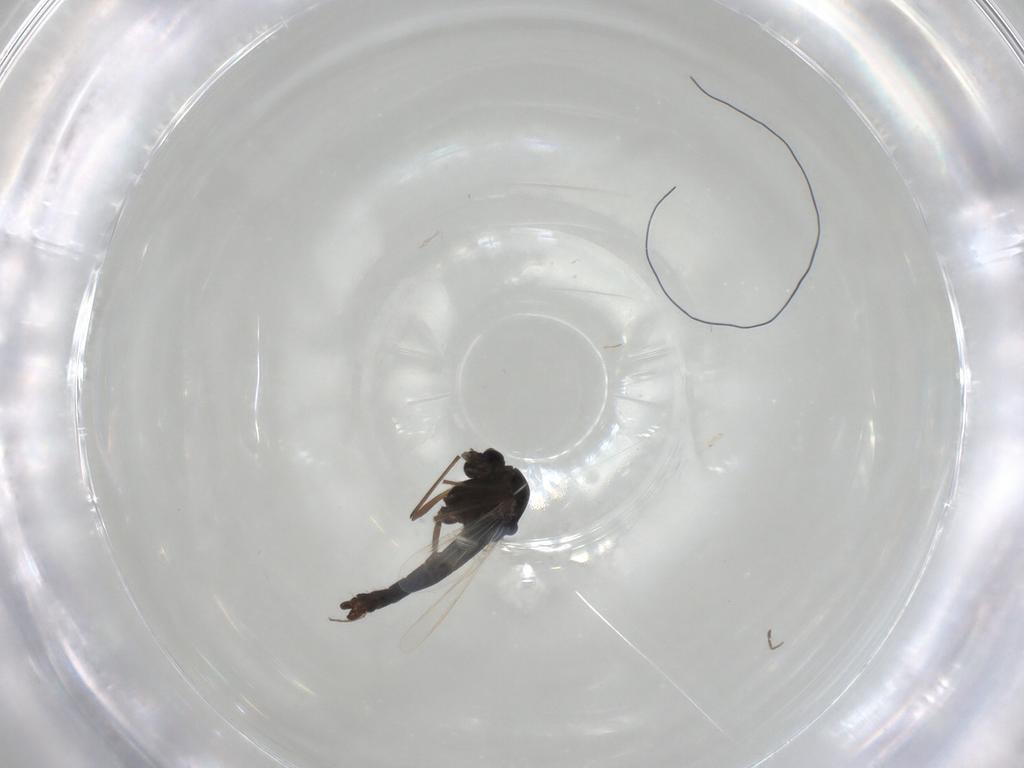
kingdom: Animalia
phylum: Arthropoda
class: Insecta
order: Diptera
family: Chironomidae
